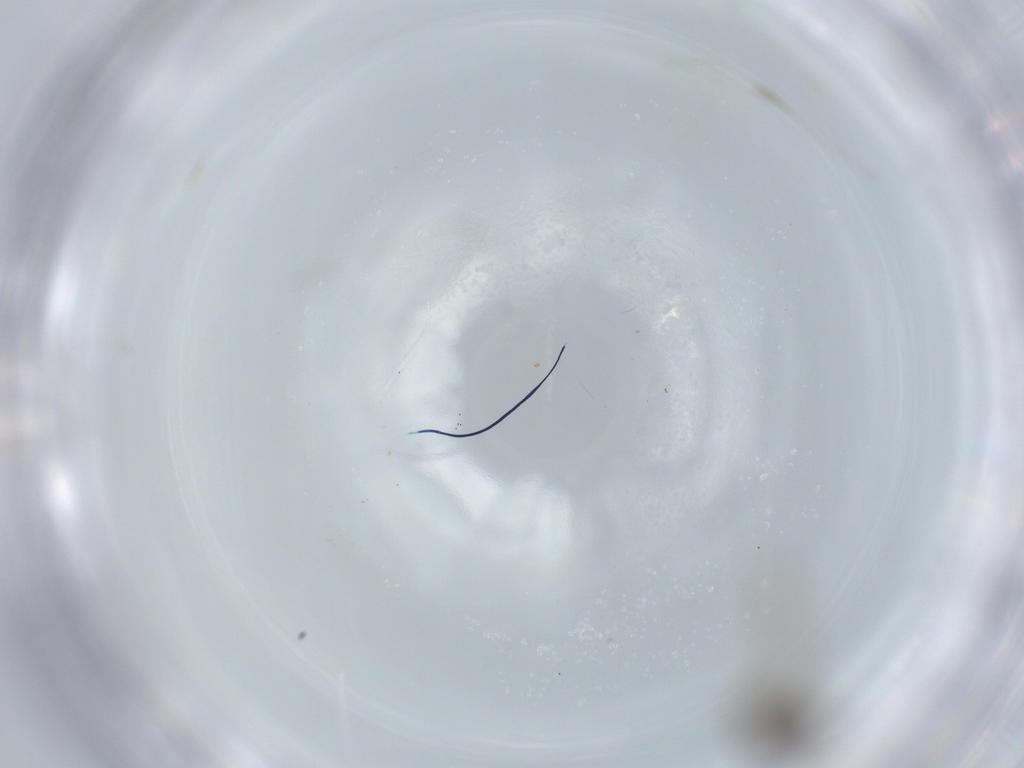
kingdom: Animalia
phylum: Arthropoda
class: Insecta
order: Diptera
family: Psychodidae
